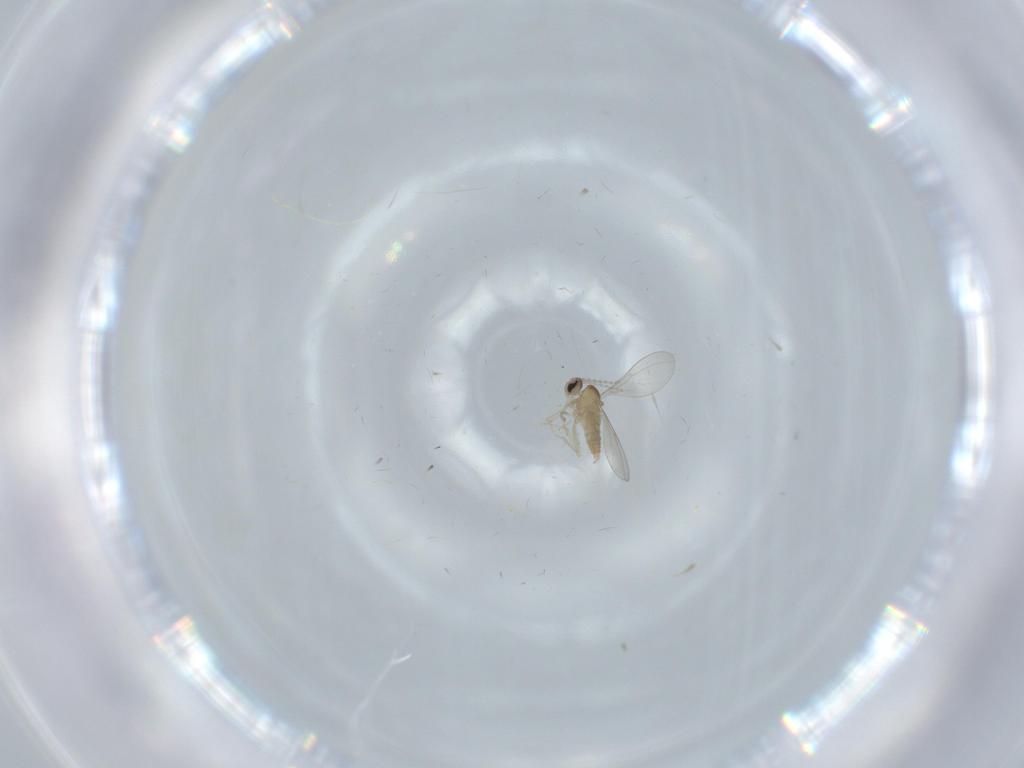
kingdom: Animalia
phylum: Arthropoda
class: Insecta
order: Diptera
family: Cecidomyiidae
